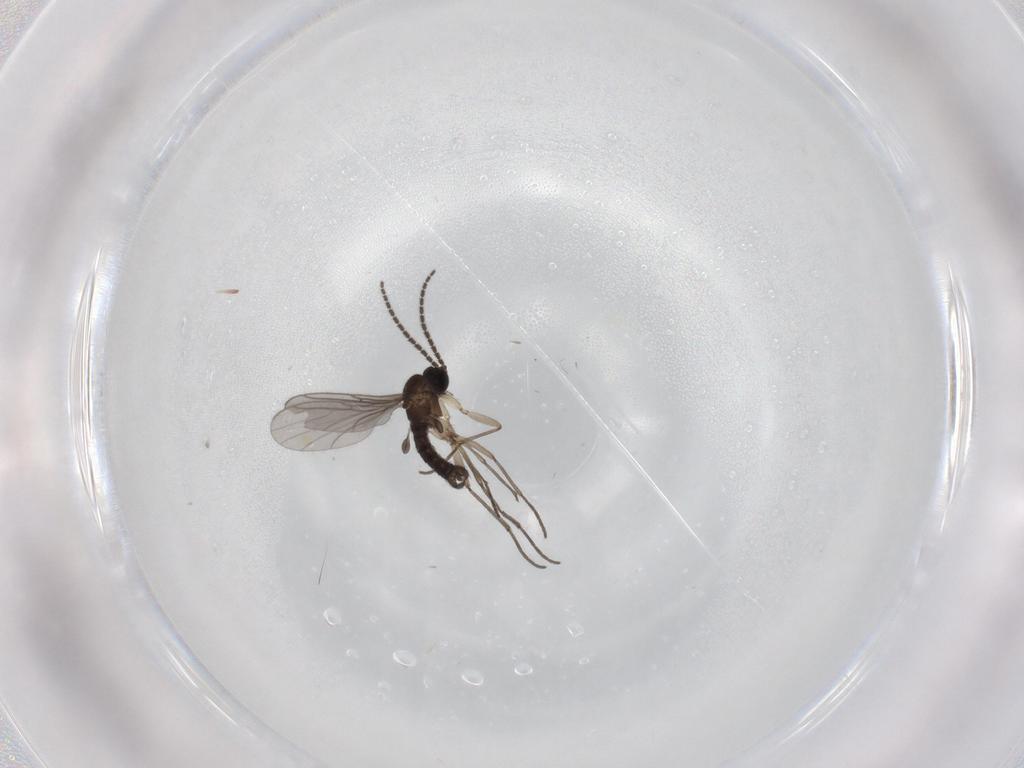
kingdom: Animalia
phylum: Arthropoda
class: Insecta
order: Diptera
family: Sciaridae
